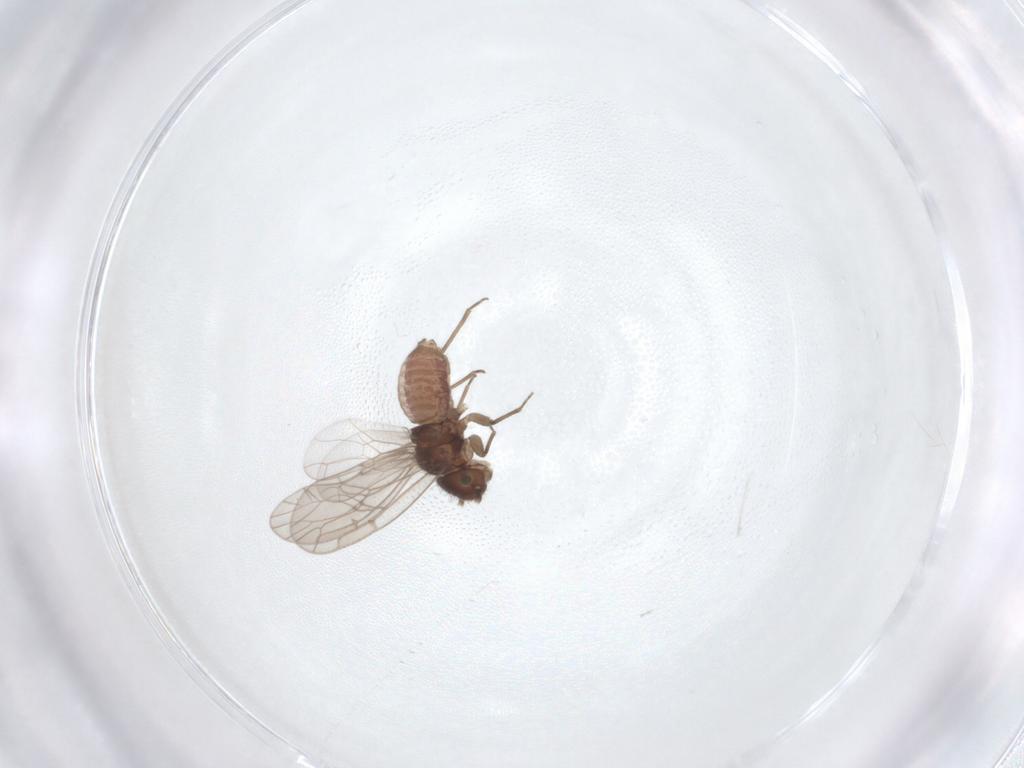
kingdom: Animalia
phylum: Arthropoda
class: Insecta
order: Psocodea
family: Ectopsocidae
